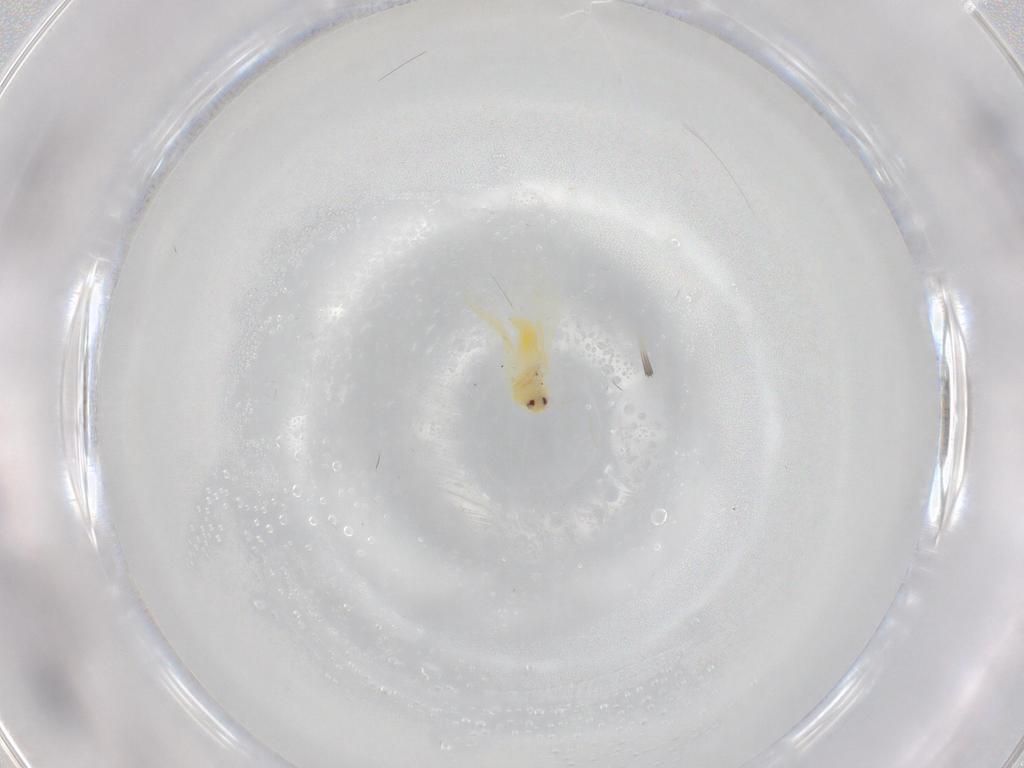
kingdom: Animalia
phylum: Arthropoda
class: Insecta
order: Hemiptera
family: Aleyrodidae
